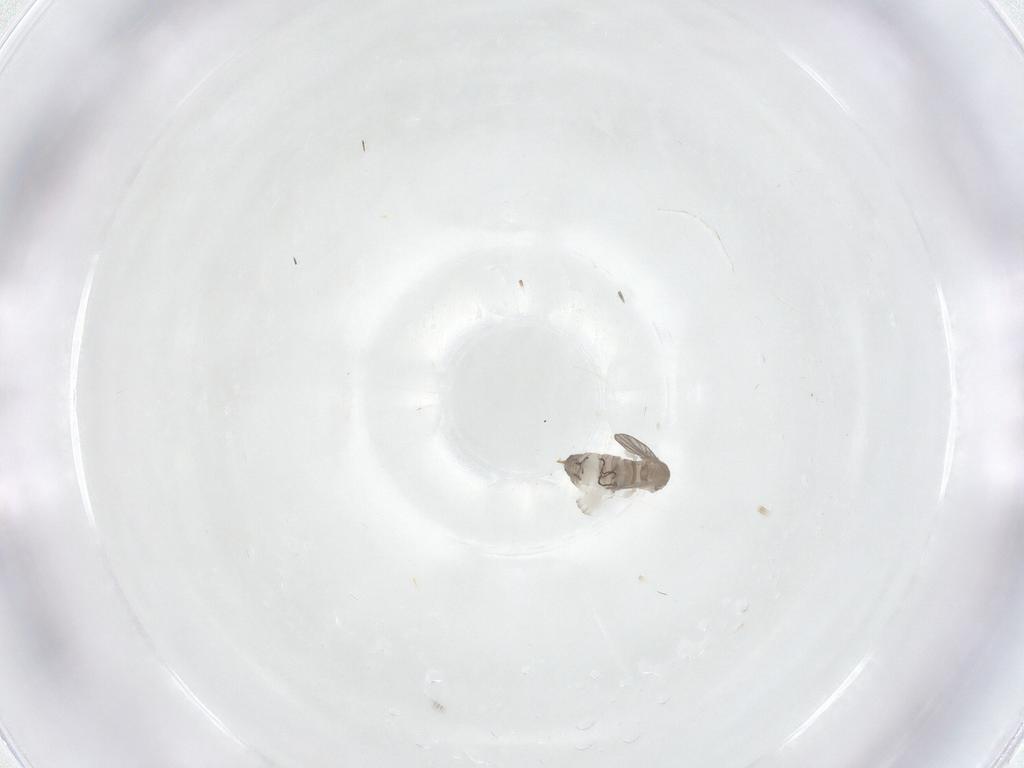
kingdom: Animalia
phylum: Arthropoda
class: Insecta
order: Diptera
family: Psychodidae
